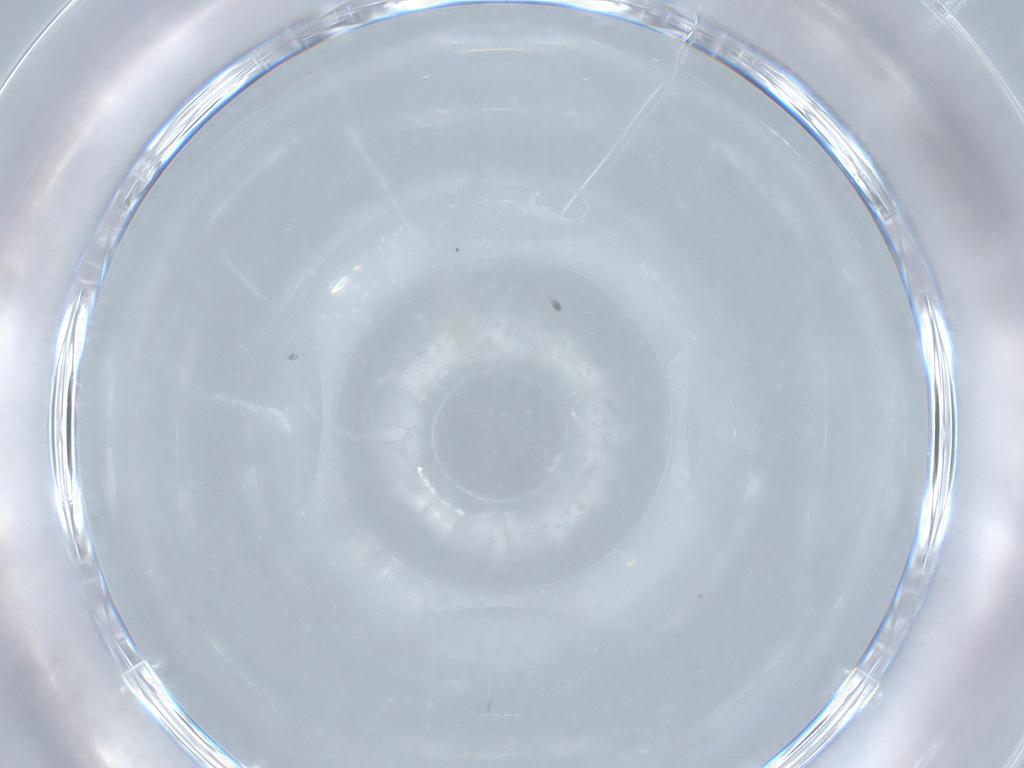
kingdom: Animalia
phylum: Arthropoda
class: Arachnida
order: Trombidiformes
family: Eupodidae
